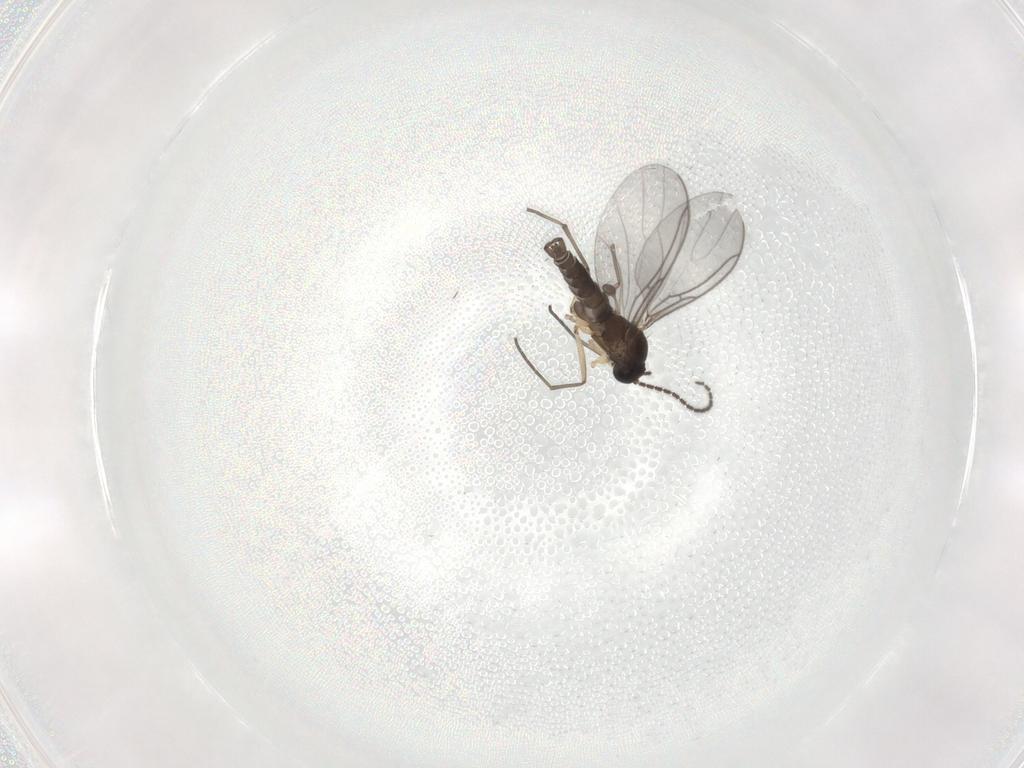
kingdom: Animalia
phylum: Arthropoda
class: Insecta
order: Diptera
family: Sciaridae
